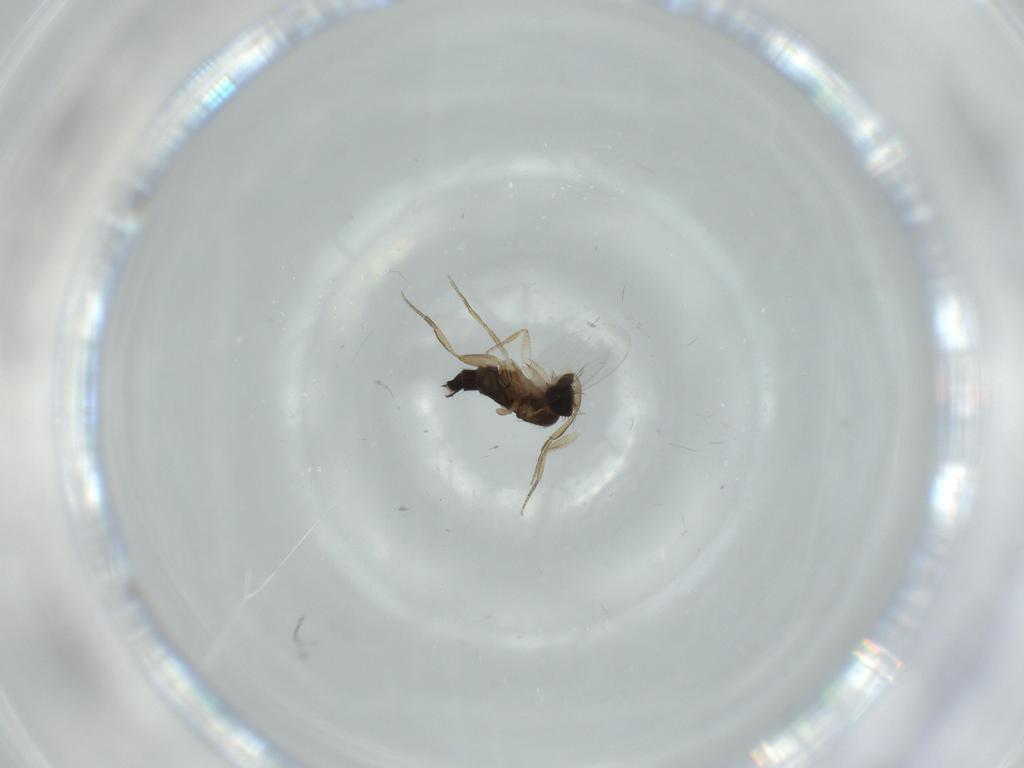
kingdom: Animalia
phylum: Arthropoda
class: Insecta
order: Diptera
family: Phoridae
